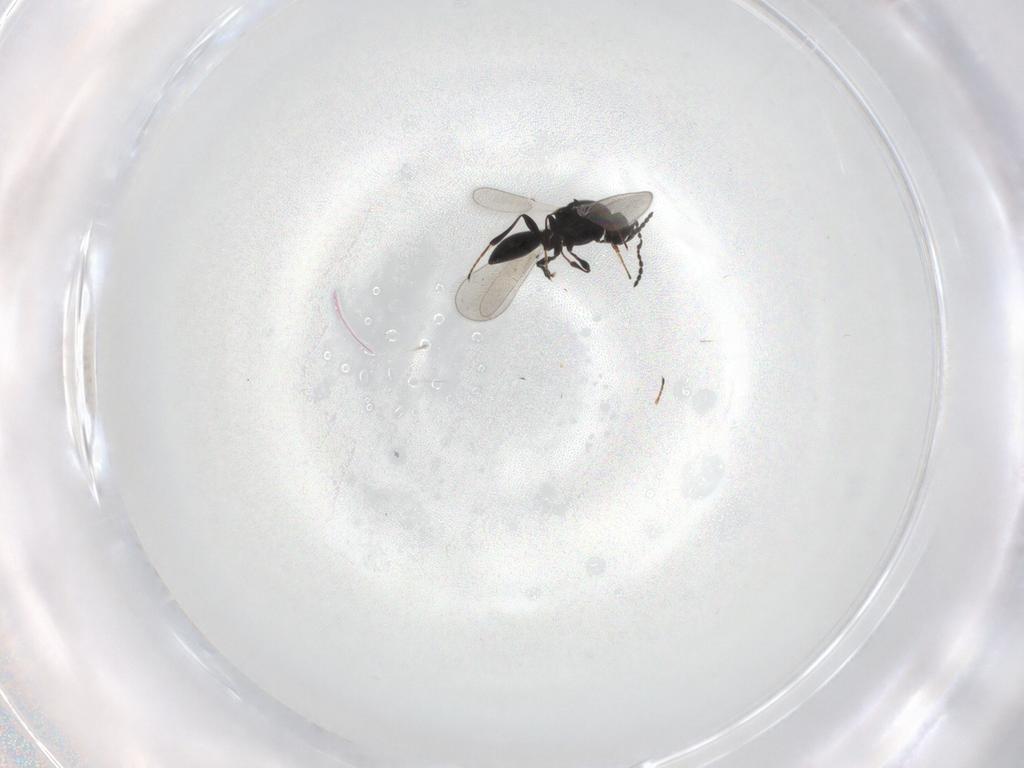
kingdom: Animalia
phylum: Arthropoda
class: Insecta
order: Hymenoptera
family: Platygastridae
